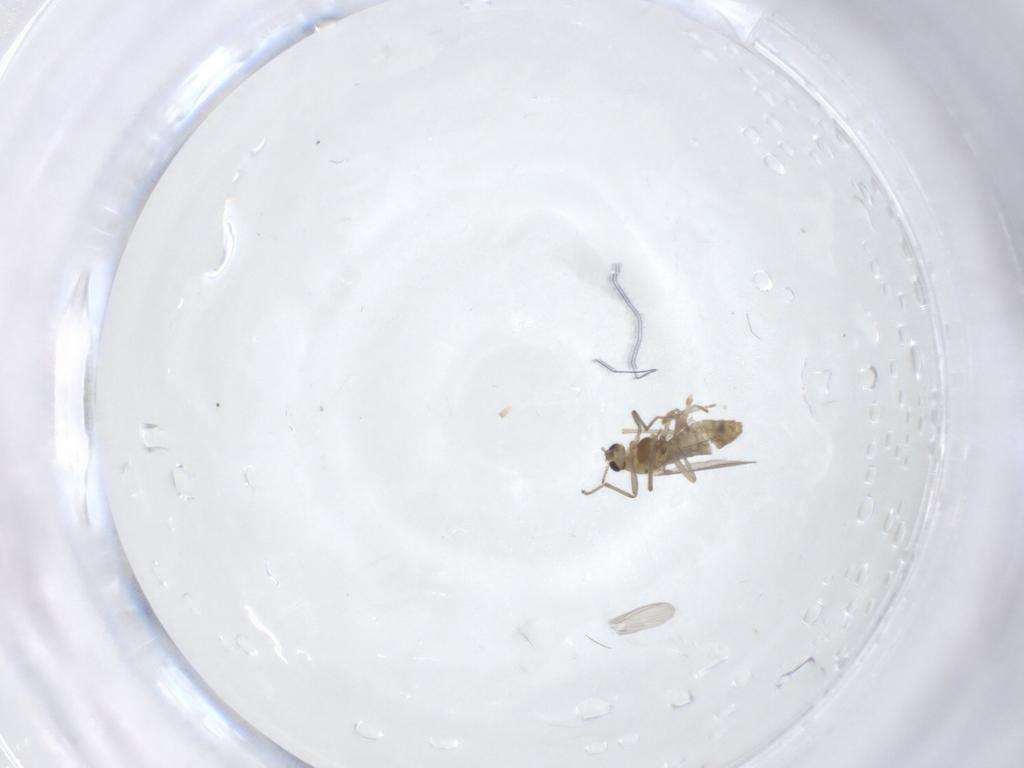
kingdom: Animalia
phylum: Arthropoda
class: Insecta
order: Diptera
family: Chironomidae
